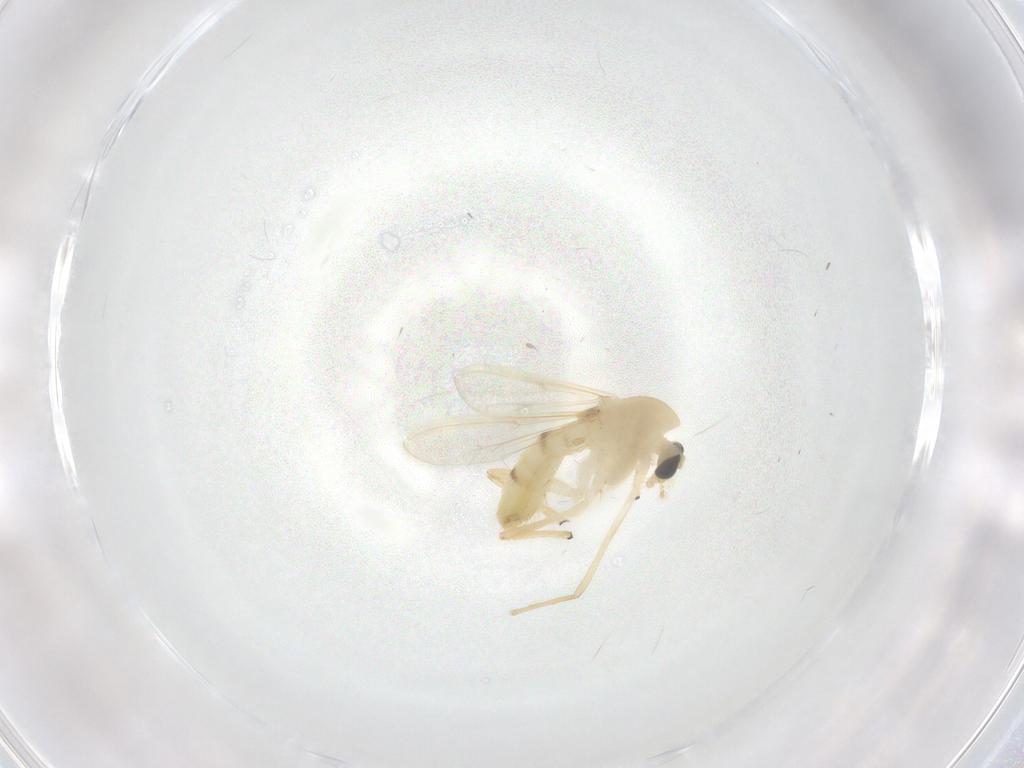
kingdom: Animalia
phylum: Arthropoda
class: Insecta
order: Diptera
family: Chironomidae
